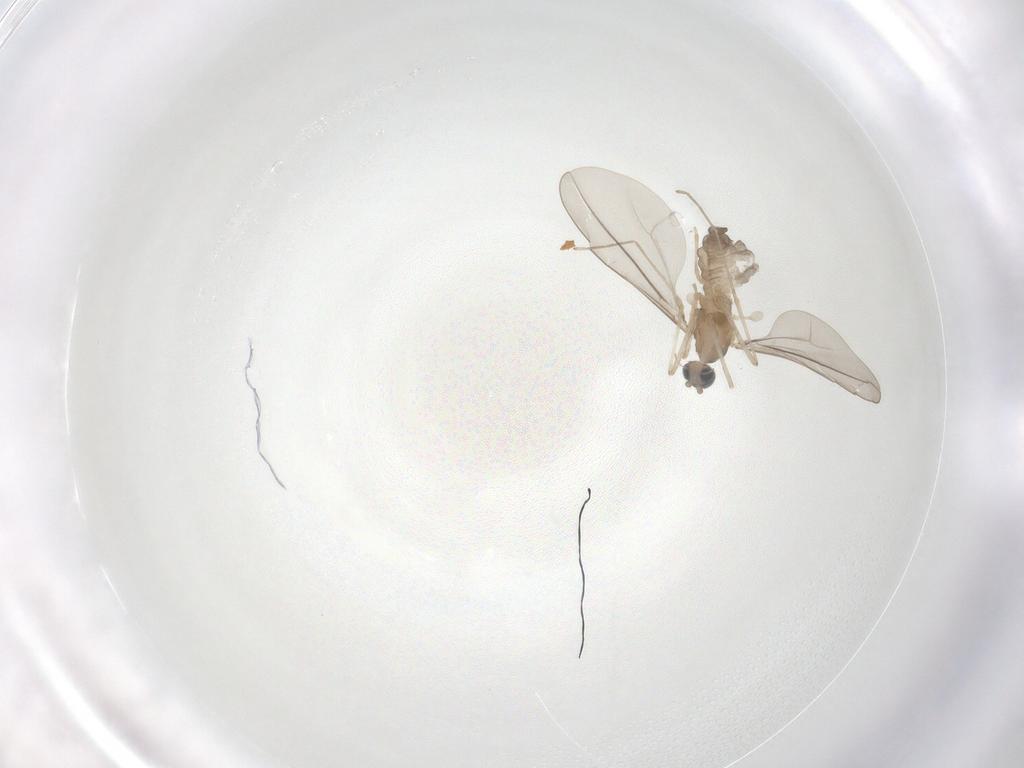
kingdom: Animalia
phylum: Arthropoda
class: Insecta
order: Diptera
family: Cecidomyiidae
